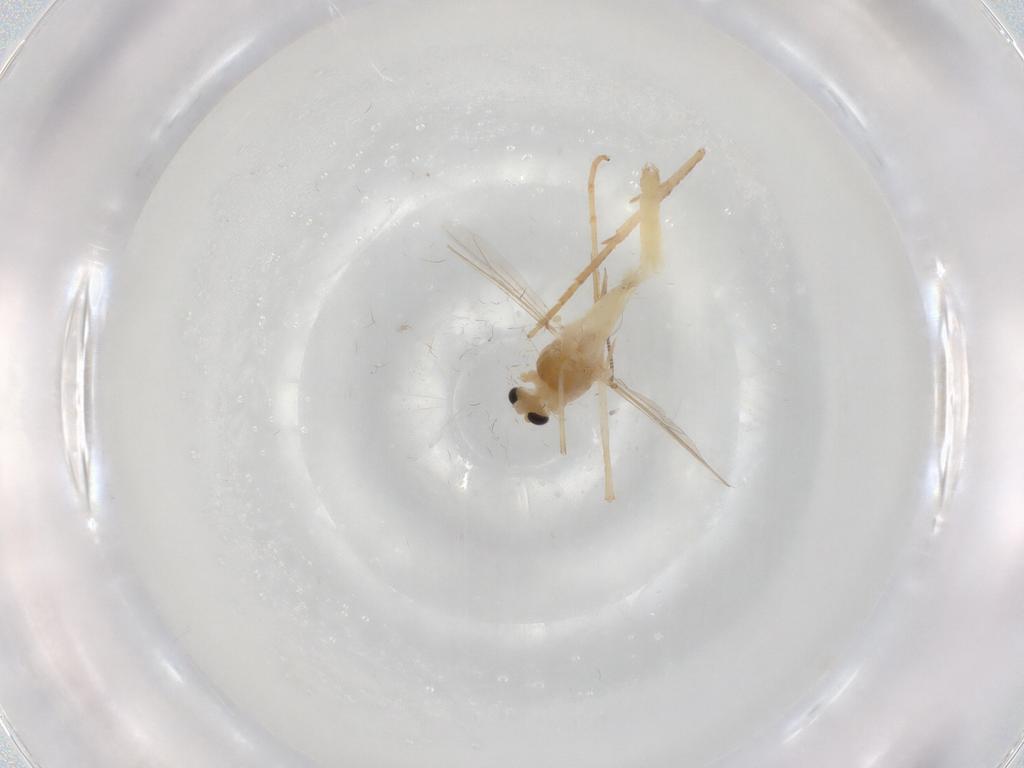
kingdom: Animalia
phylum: Arthropoda
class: Insecta
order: Diptera
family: Chironomidae
